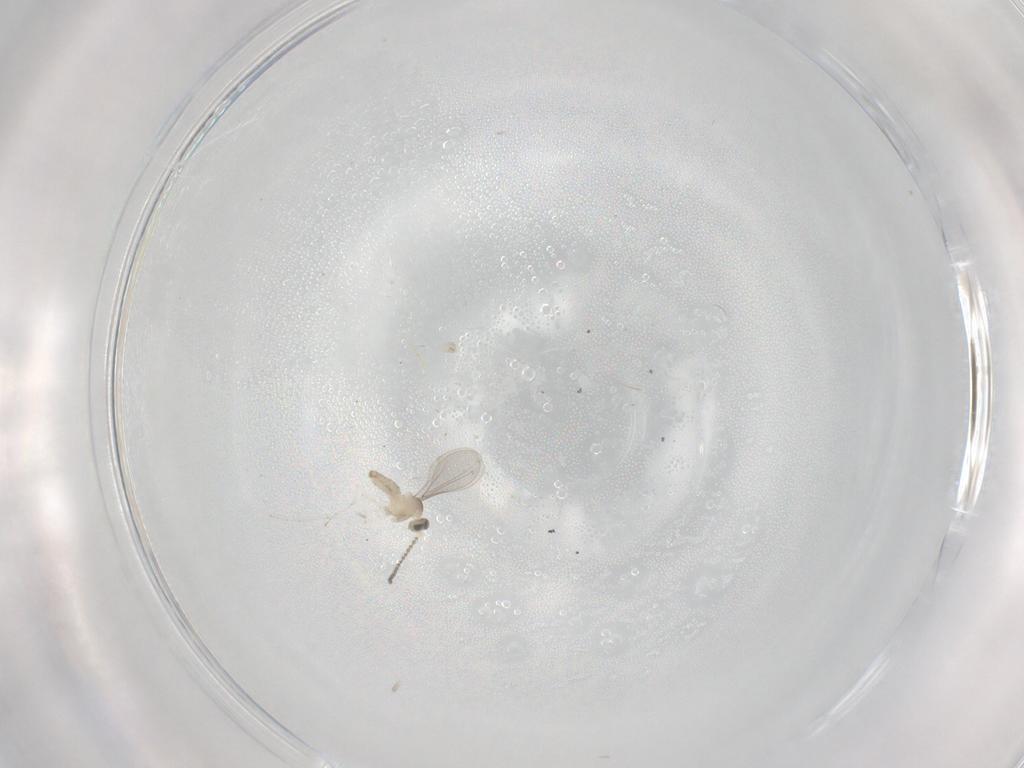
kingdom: Animalia
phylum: Arthropoda
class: Insecta
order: Diptera
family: Cecidomyiidae
